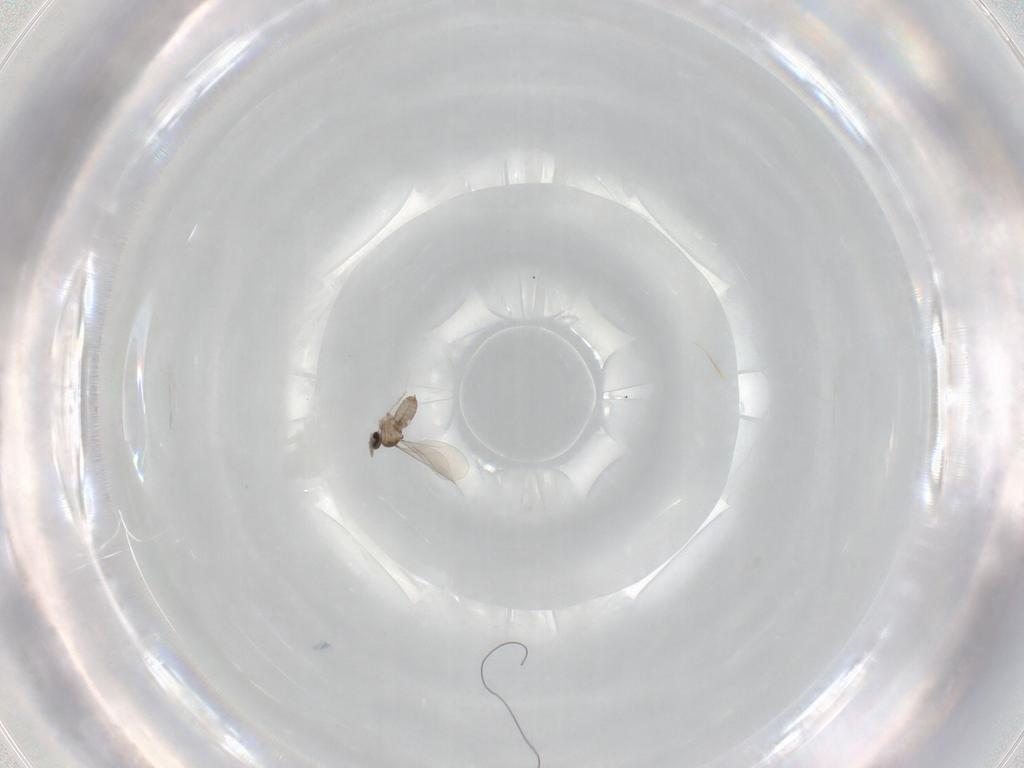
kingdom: Animalia
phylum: Arthropoda
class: Insecta
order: Diptera
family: Cecidomyiidae
